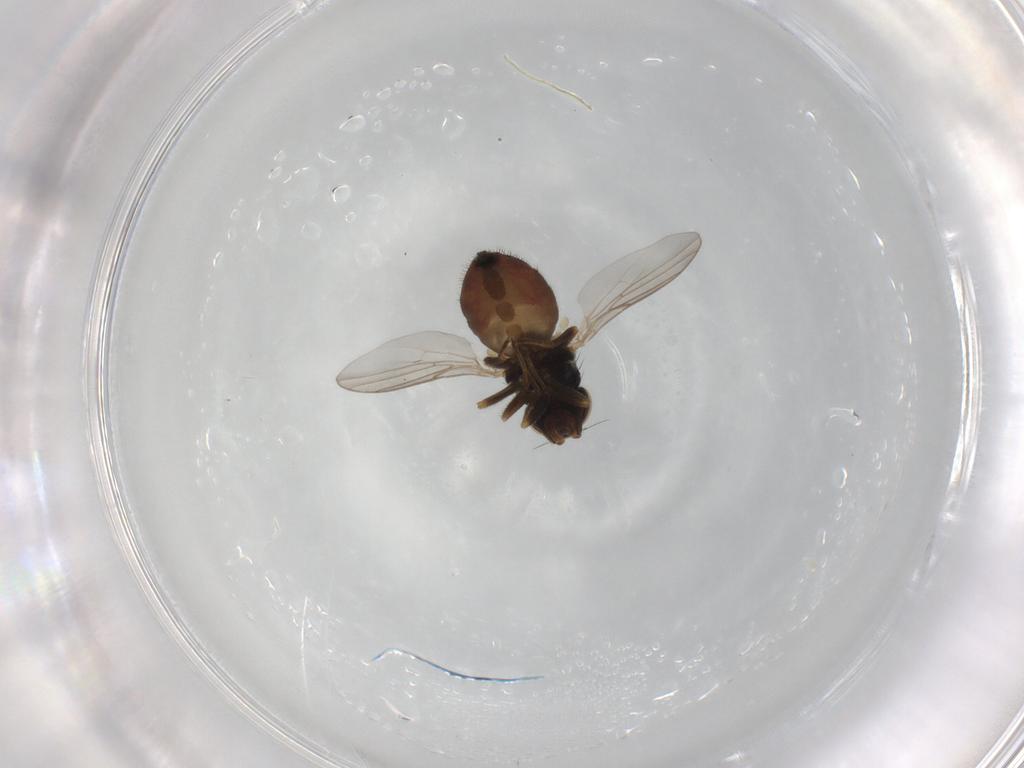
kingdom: Animalia
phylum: Arthropoda
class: Insecta
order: Diptera
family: Chloropidae
